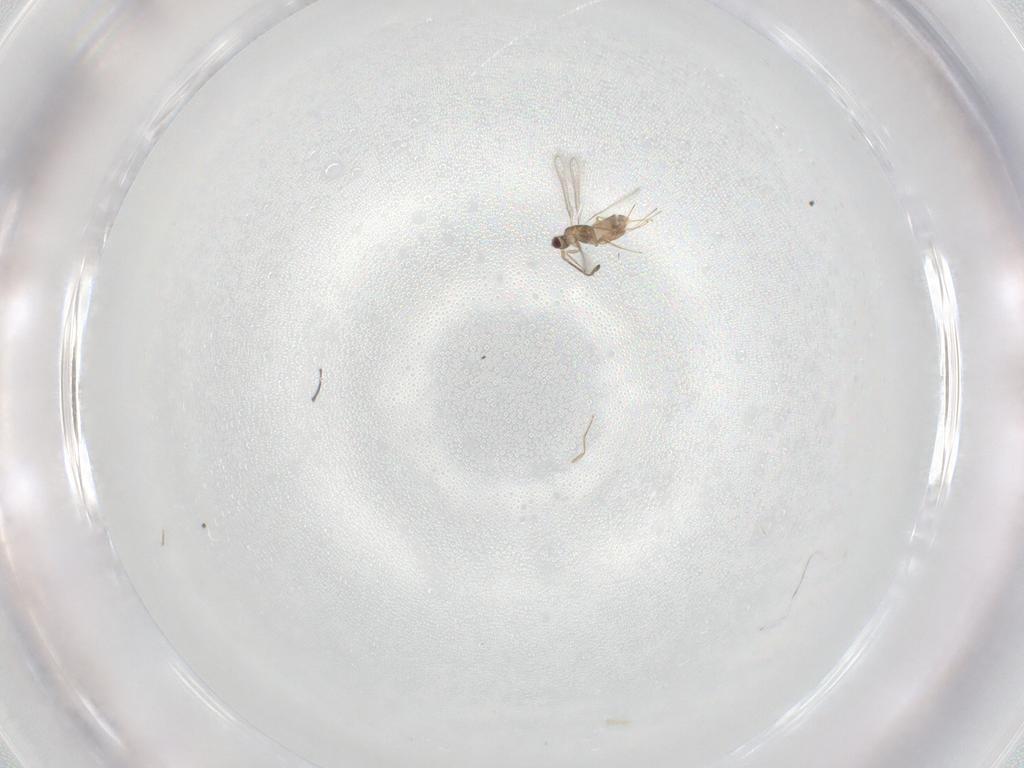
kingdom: Animalia
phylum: Arthropoda
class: Insecta
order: Hymenoptera
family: Mymaridae
